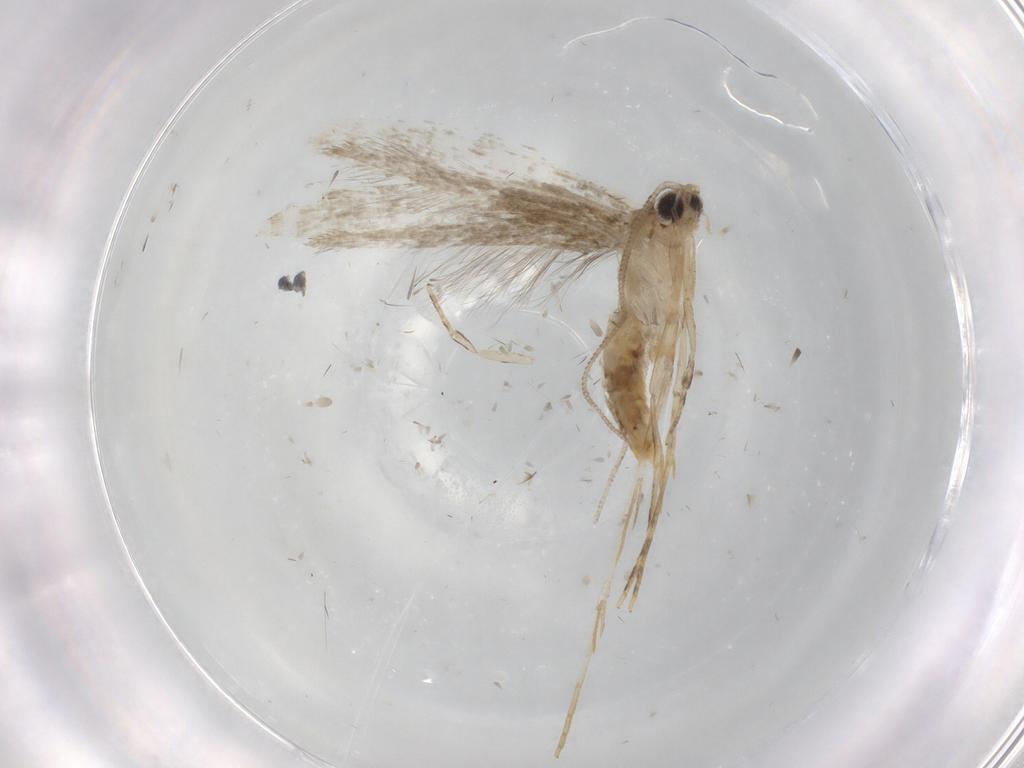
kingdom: Animalia
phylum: Arthropoda
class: Insecta
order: Lepidoptera
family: Tineidae
